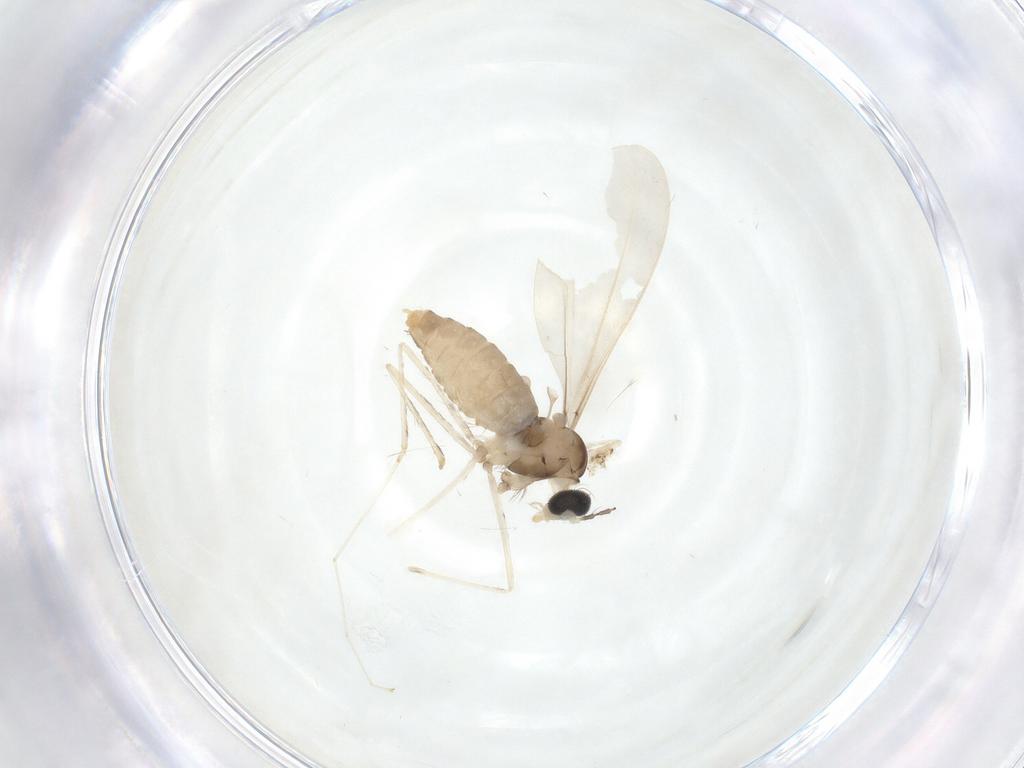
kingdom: Animalia
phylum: Arthropoda
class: Insecta
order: Diptera
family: Cecidomyiidae
